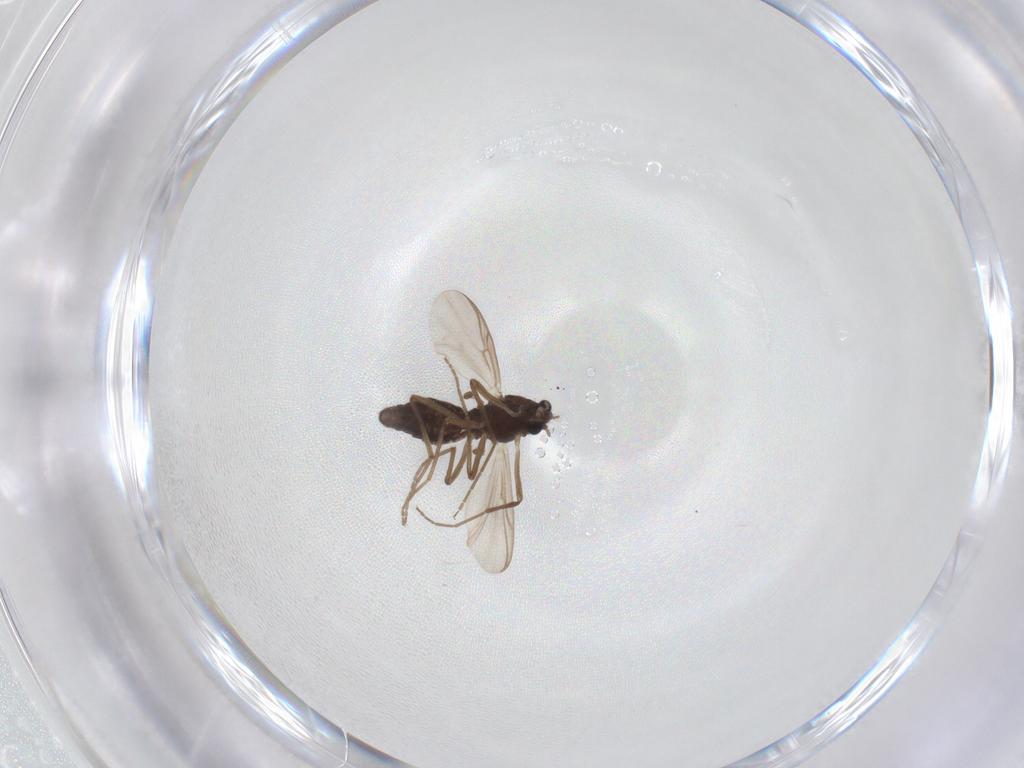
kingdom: Animalia
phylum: Arthropoda
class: Insecta
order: Diptera
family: Chironomidae
